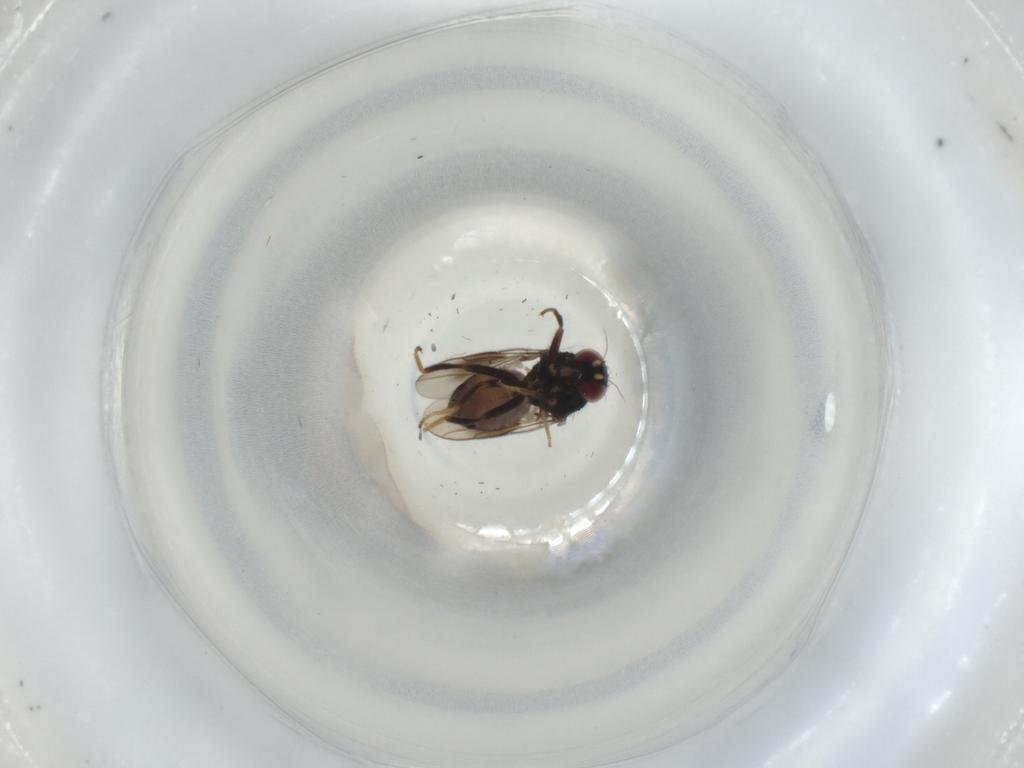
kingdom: Animalia
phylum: Arthropoda
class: Insecta
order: Diptera
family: Chloropidae
